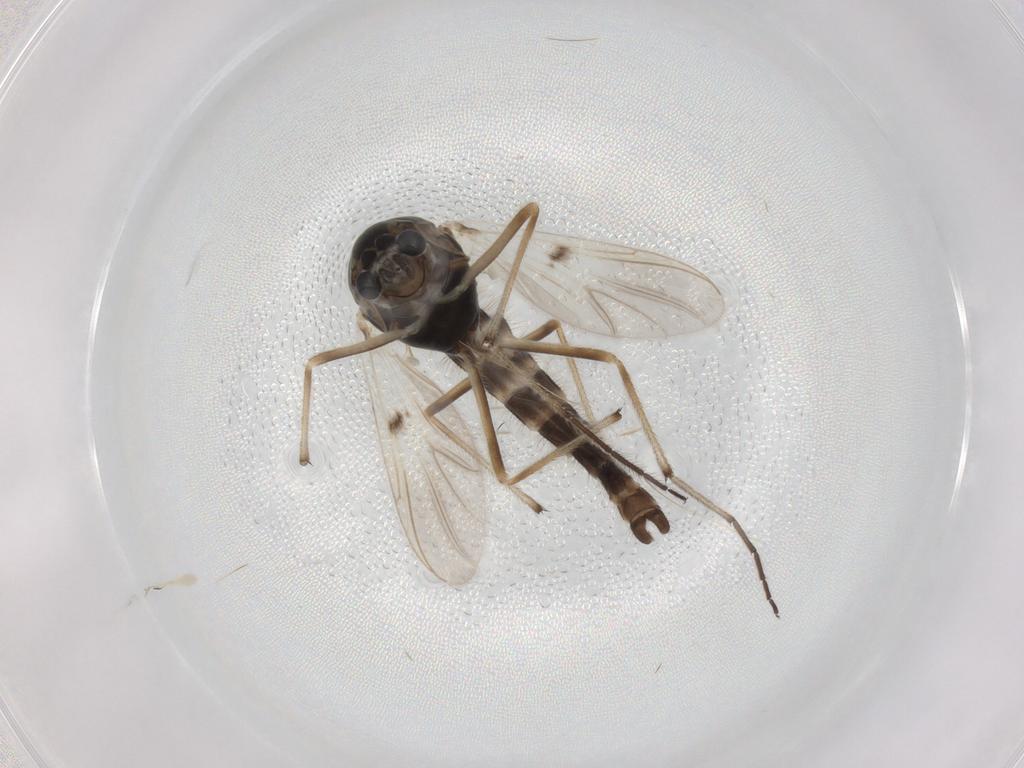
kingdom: Animalia
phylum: Arthropoda
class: Insecta
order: Diptera
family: Chironomidae
